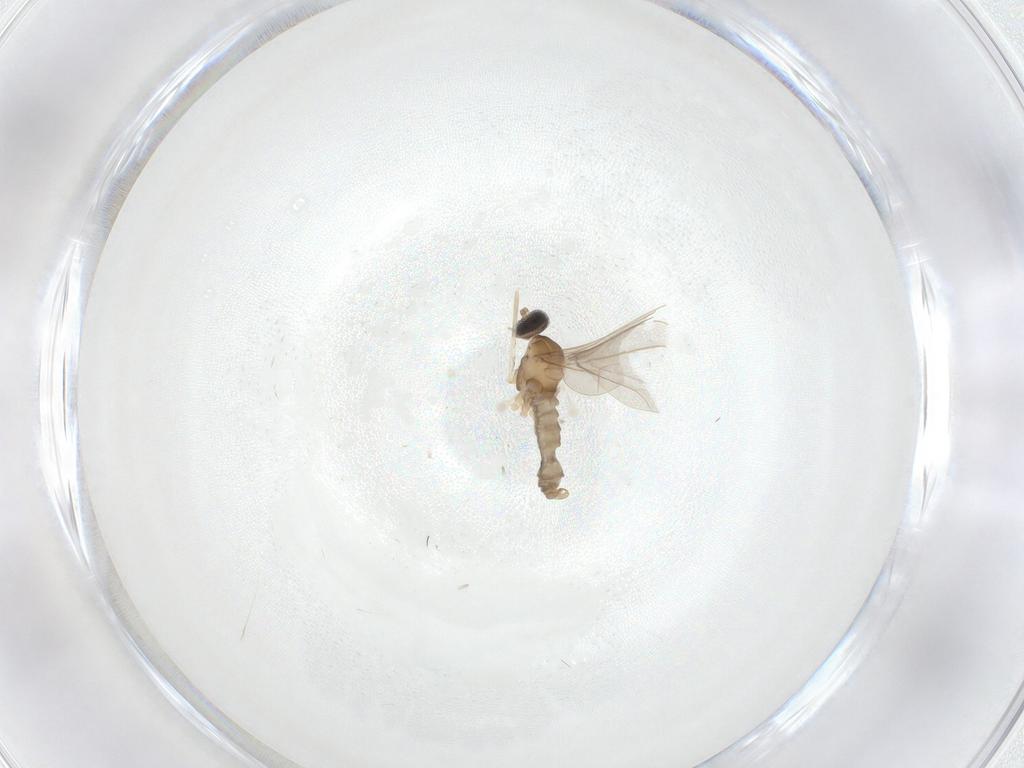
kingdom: Animalia
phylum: Arthropoda
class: Insecta
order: Diptera
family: Cecidomyiidae
